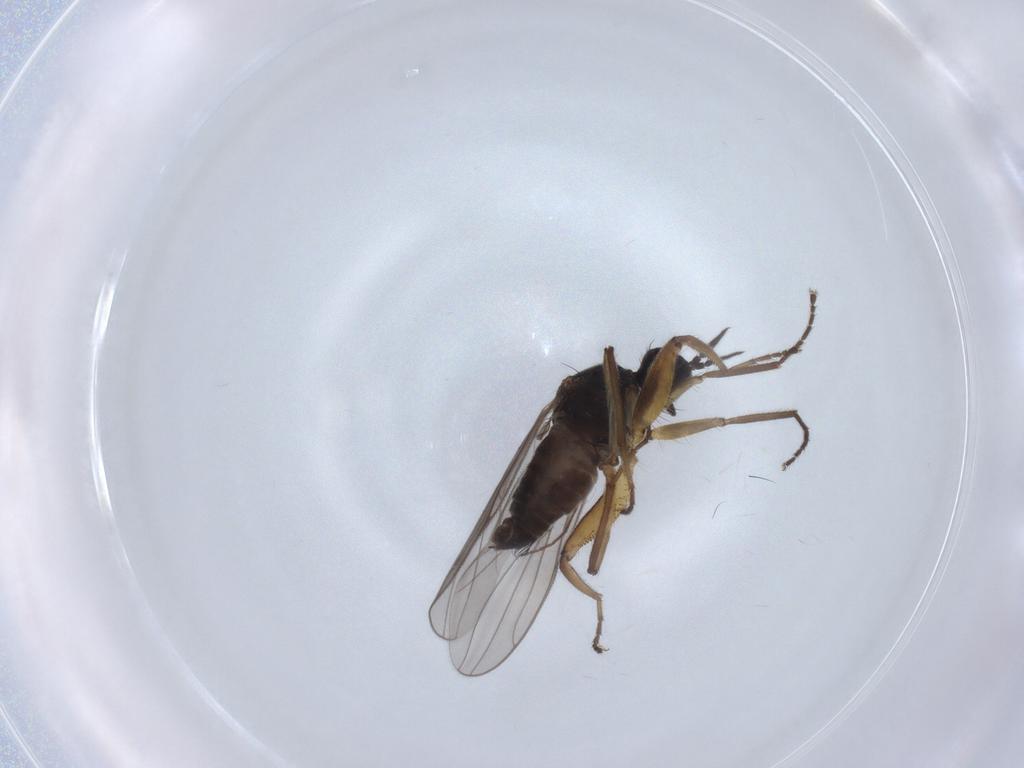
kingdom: Animalia
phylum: Arthropoda
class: Insecta
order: Diptera
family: Hybotidae
